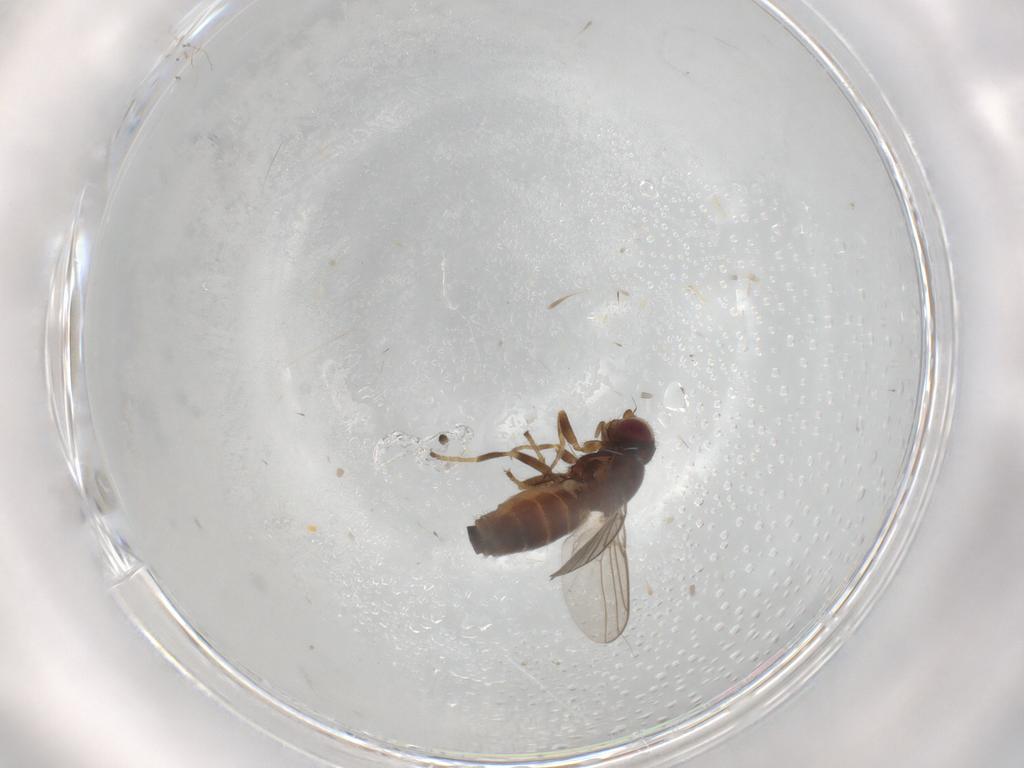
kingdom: Animalia
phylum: Arthropoda
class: Insecta
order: Diptera
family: Chloropidae
